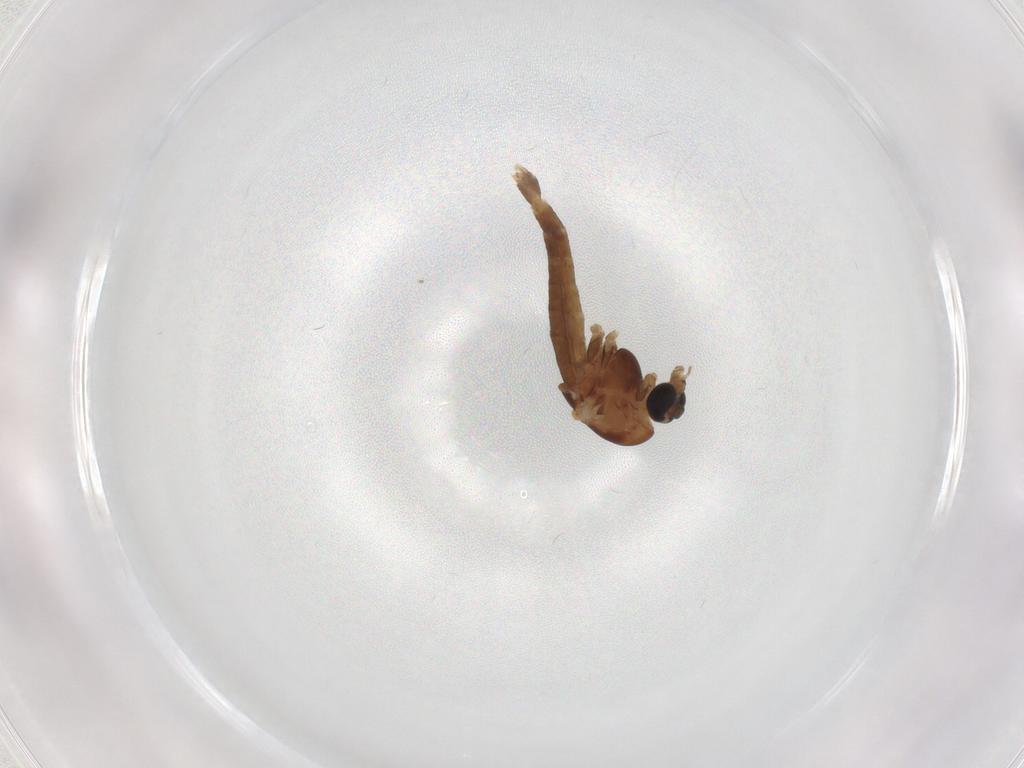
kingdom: Animalia
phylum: Arthropoda
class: Insecta
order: Diptera
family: Chironomidae
